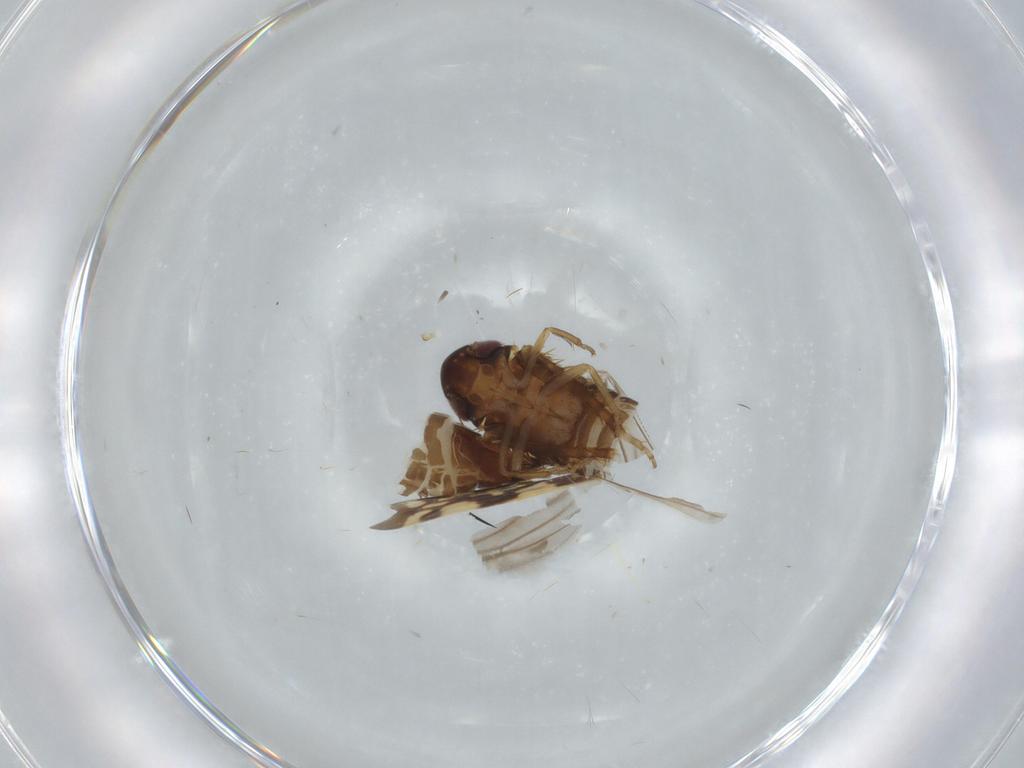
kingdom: Animalia
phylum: Arthropoda
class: Insecta
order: Hemiptera
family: Cicadellidae
